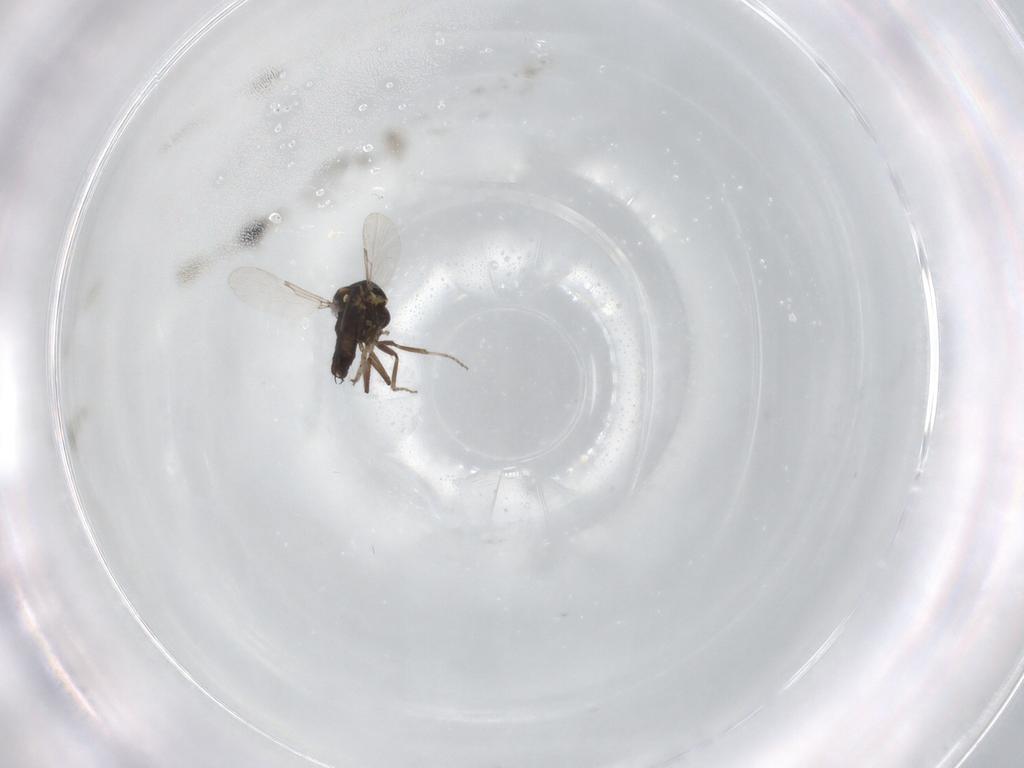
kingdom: Animalia
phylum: Arthropoda
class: Insecta
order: Diptera
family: Ceratopogonidae
